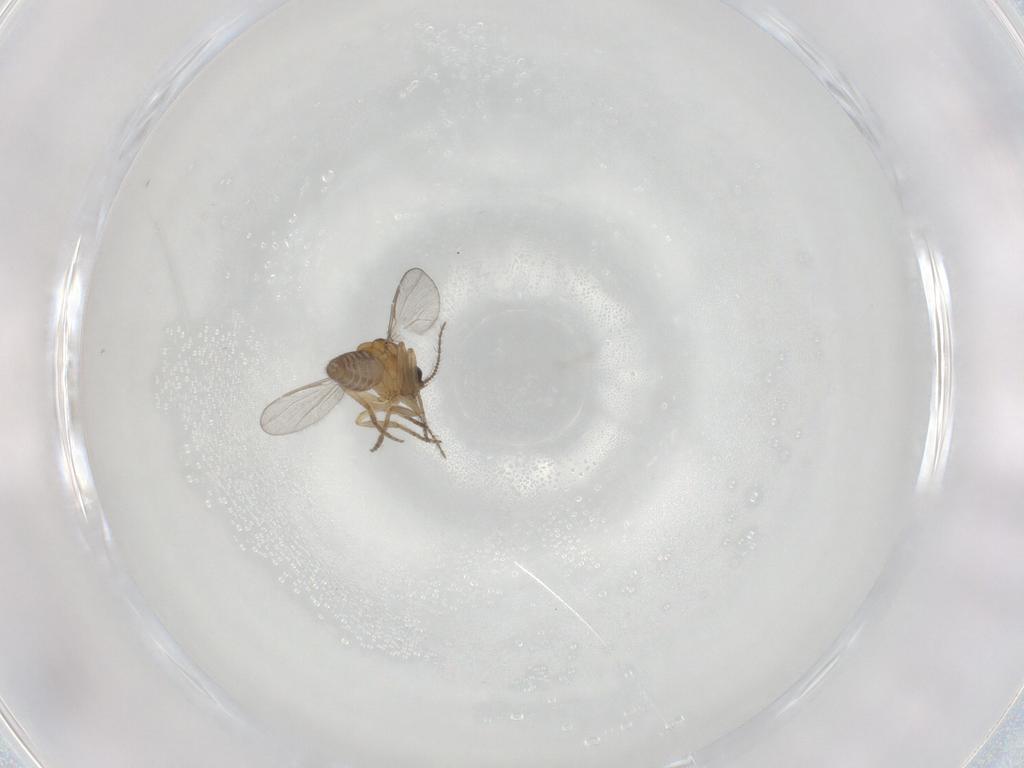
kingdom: Animalia
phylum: Arthropoda
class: Insecta
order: Diptera
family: Ceratopogonidae
